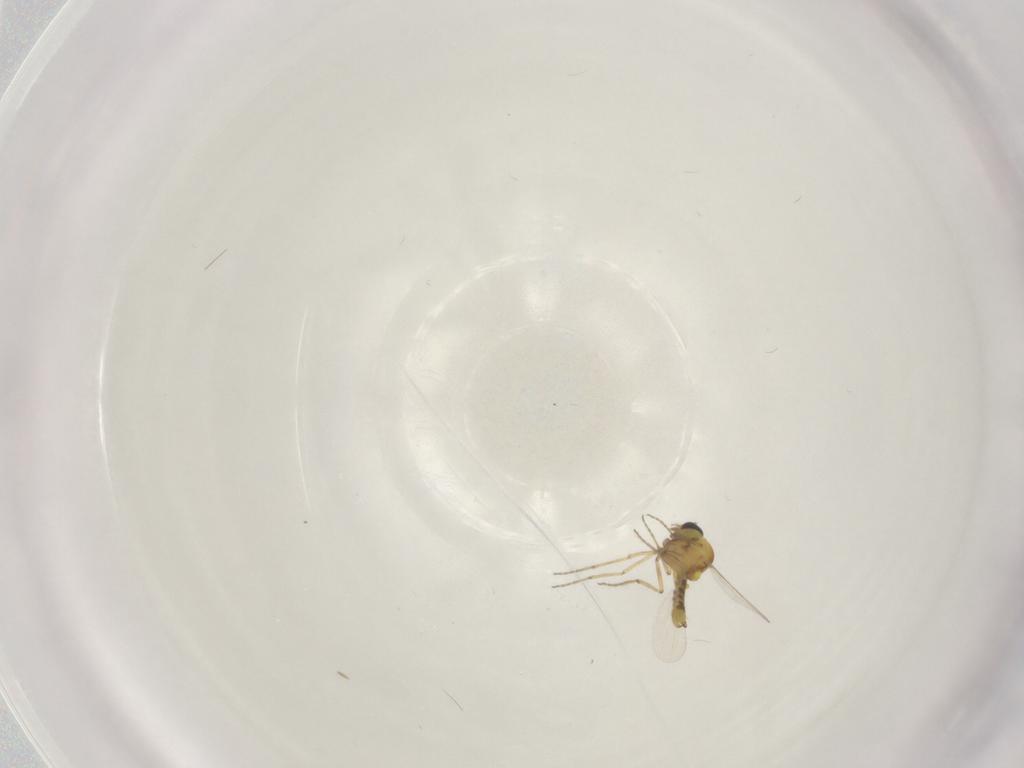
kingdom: Animalia
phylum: Arthropoda
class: Insecta
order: Diptera
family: Ceratopogonidae
